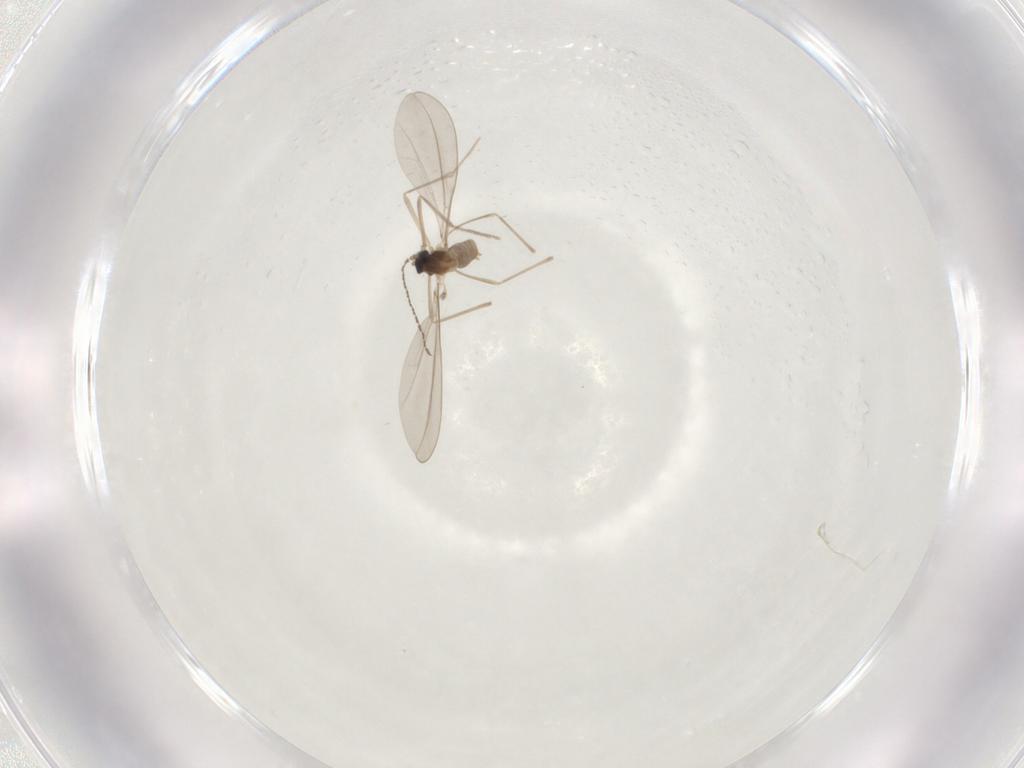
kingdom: Animalia
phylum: Arthropoda
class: Insecta
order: Diptera
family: Cecidomyiidae
